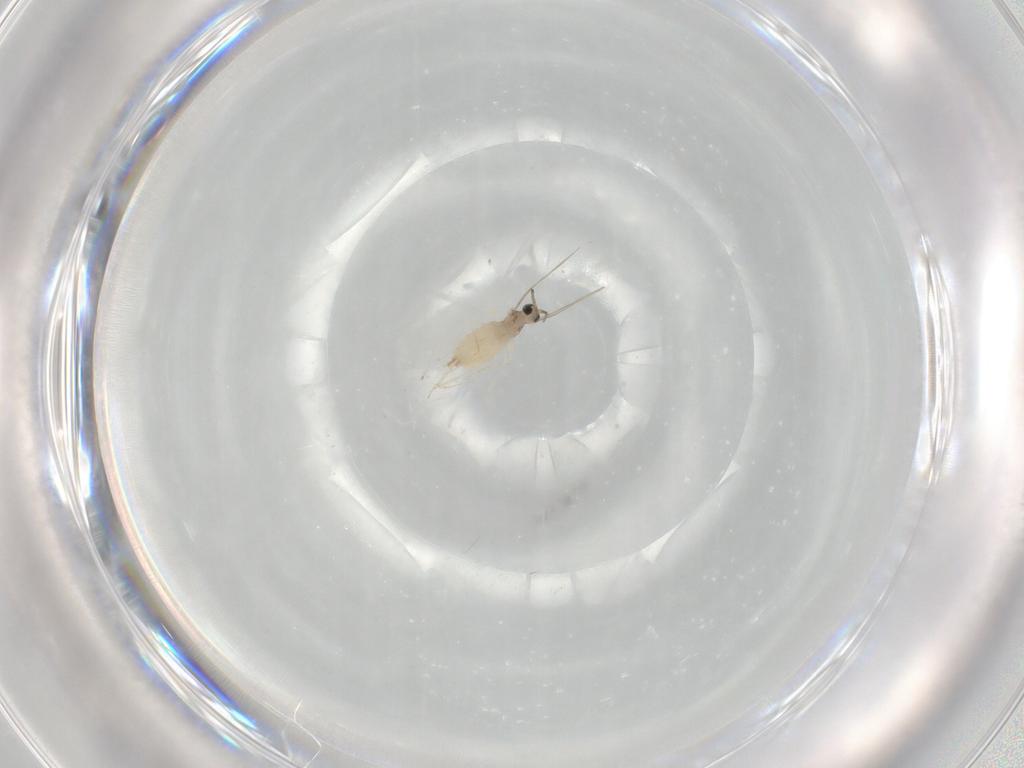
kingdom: Animalia
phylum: Arthropoda
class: Insecta
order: Diptera
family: Cecidomyiidae
